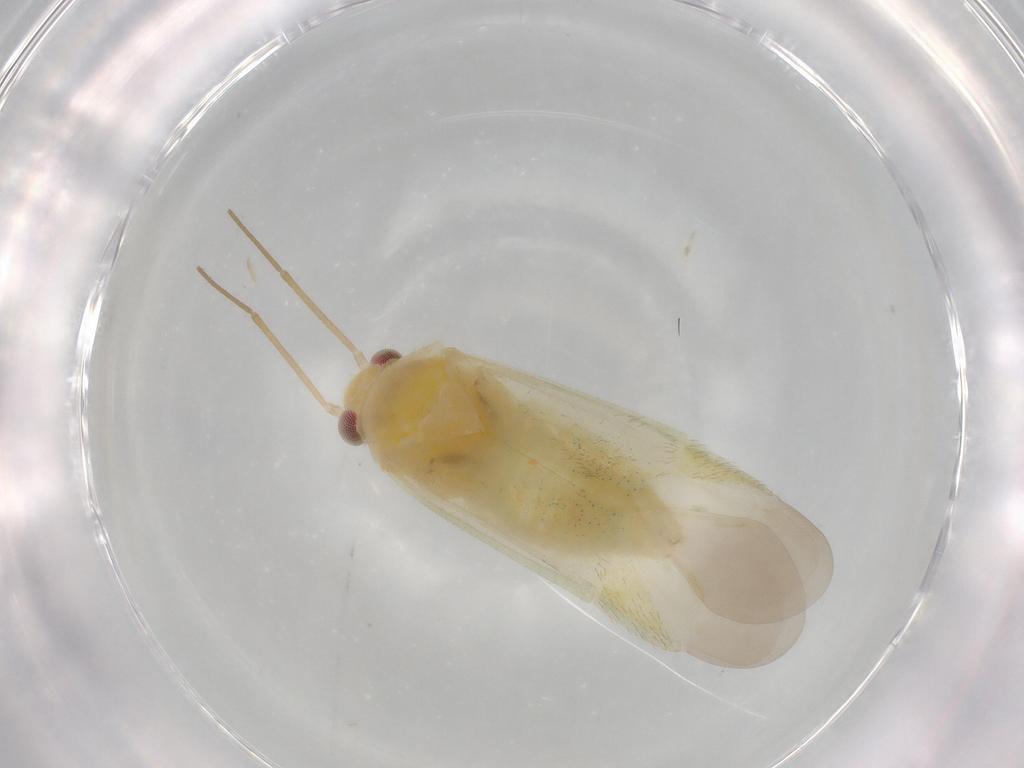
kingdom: Animalia
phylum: Arthropoda
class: Insecta
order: Hemiptera
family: Miridae
